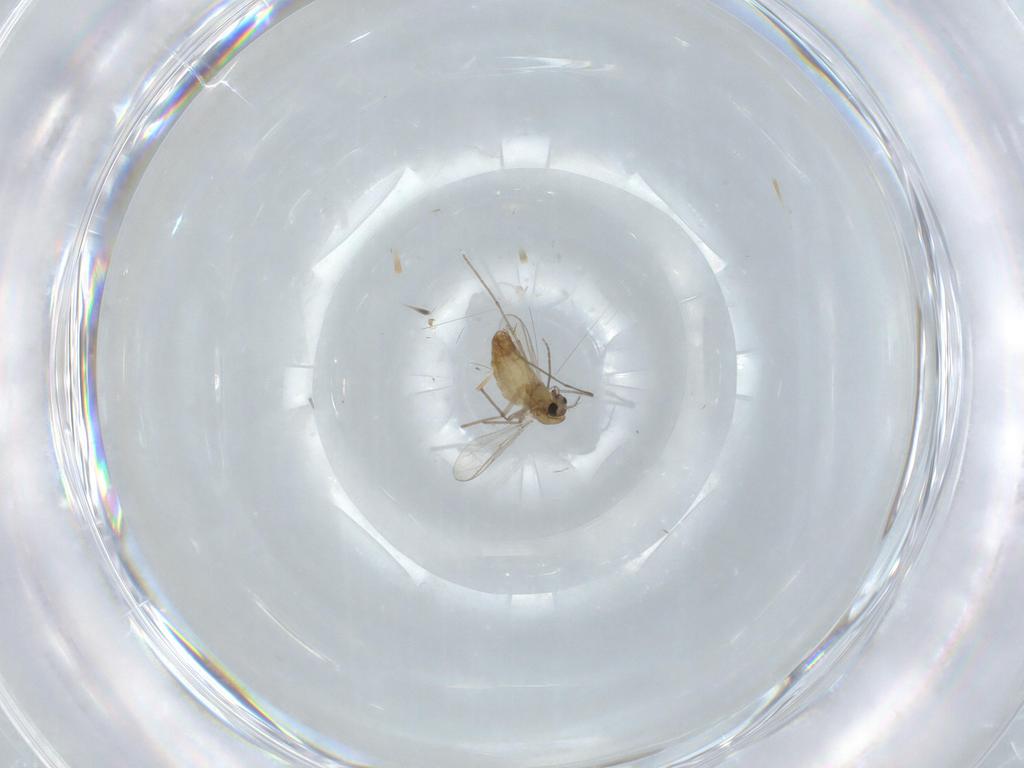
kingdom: Animalia
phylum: Arthropoda
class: Insecta
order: Diptera
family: Chironomidae
